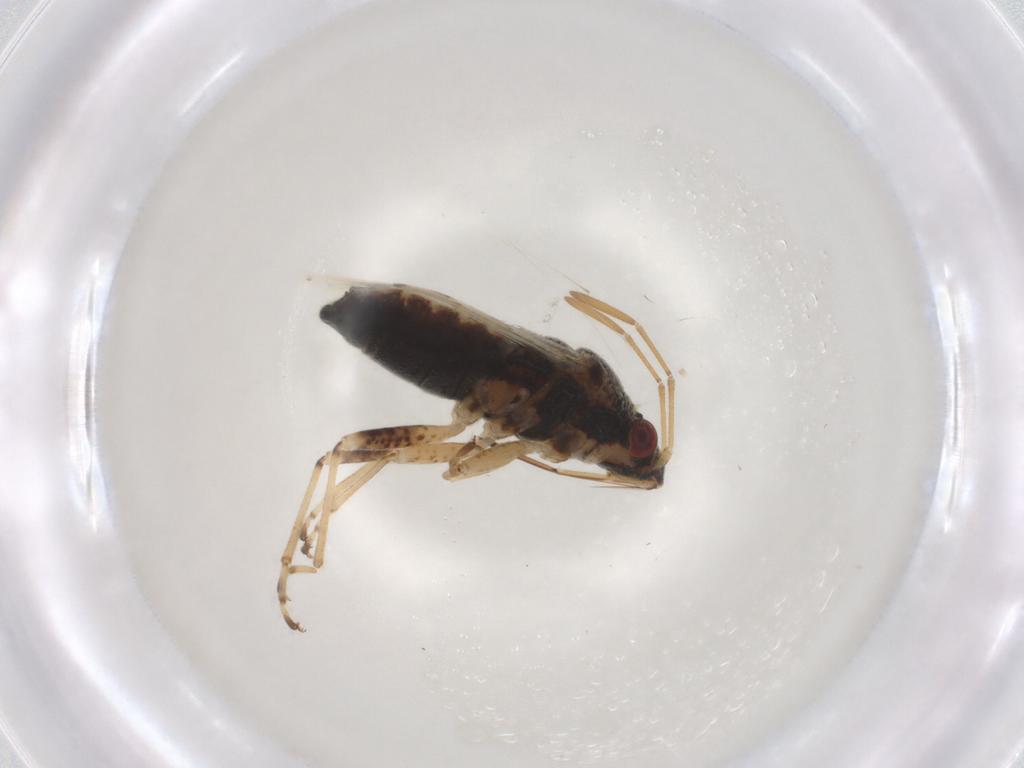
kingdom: Animalia
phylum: Arthropoda
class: Insecta
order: Hemiptera
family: Lygaeidae
